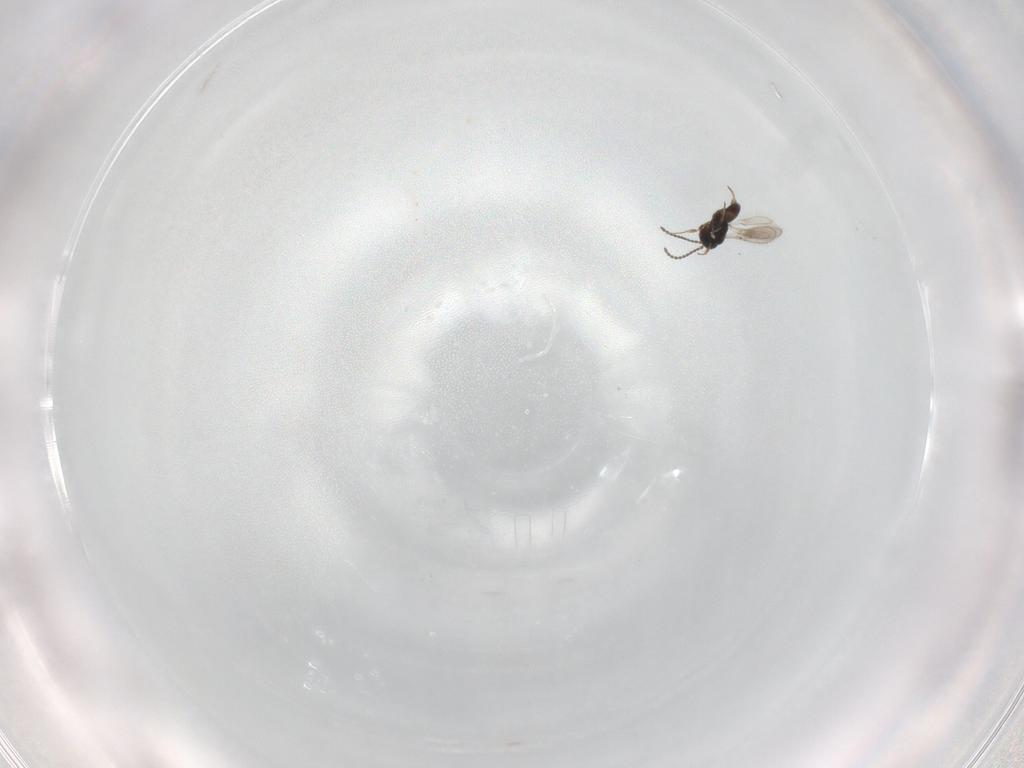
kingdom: Animalia
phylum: Arthropoda
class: Insecta
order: Hymenoptera
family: Scelionidae
